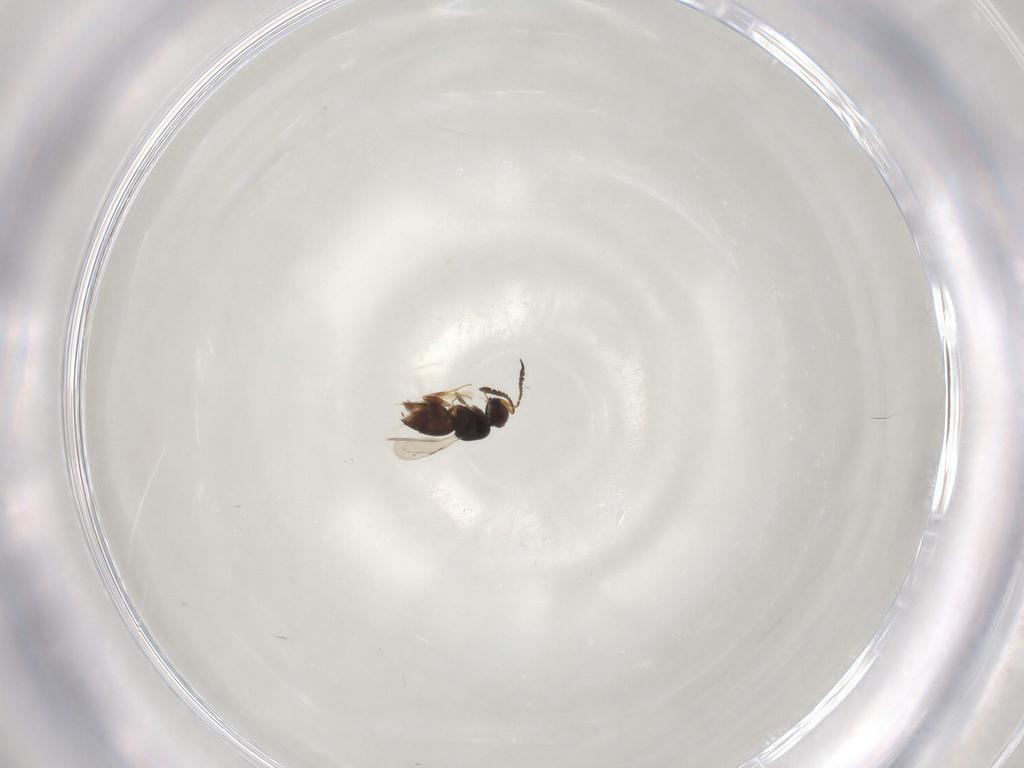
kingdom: Animalia
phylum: Arthropoda
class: Insecta
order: Hymenoptera
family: Ceraphronidae
